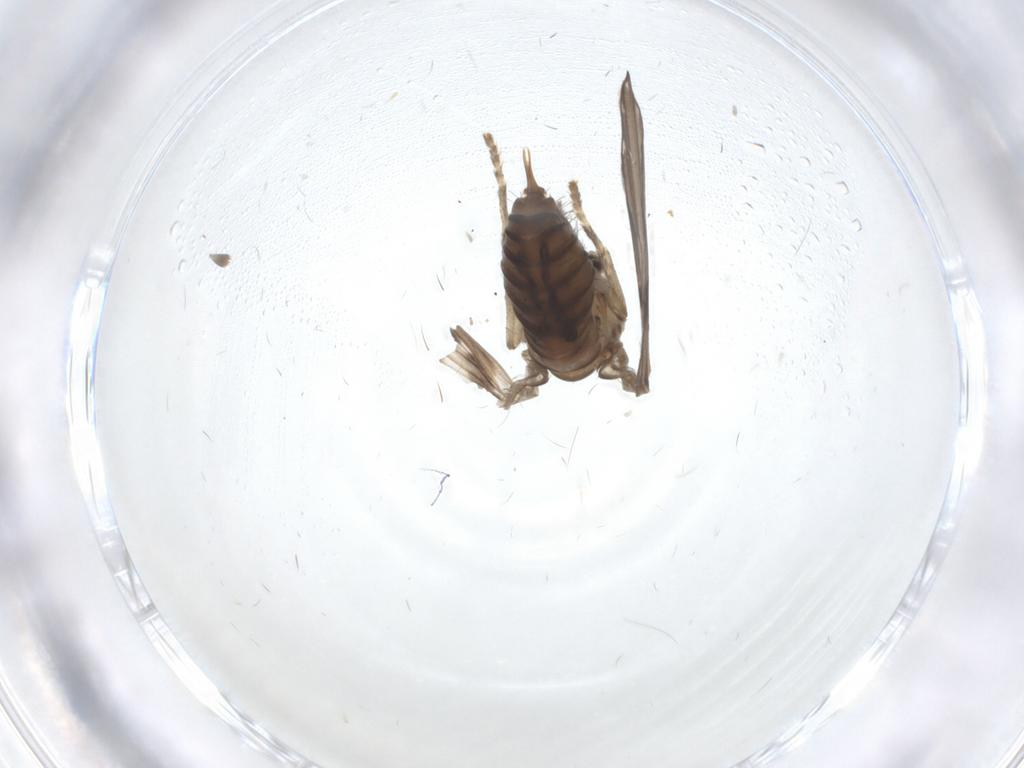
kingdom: Animalia
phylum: Arthropoda
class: Insecta
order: Diptera
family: Psychodidae
